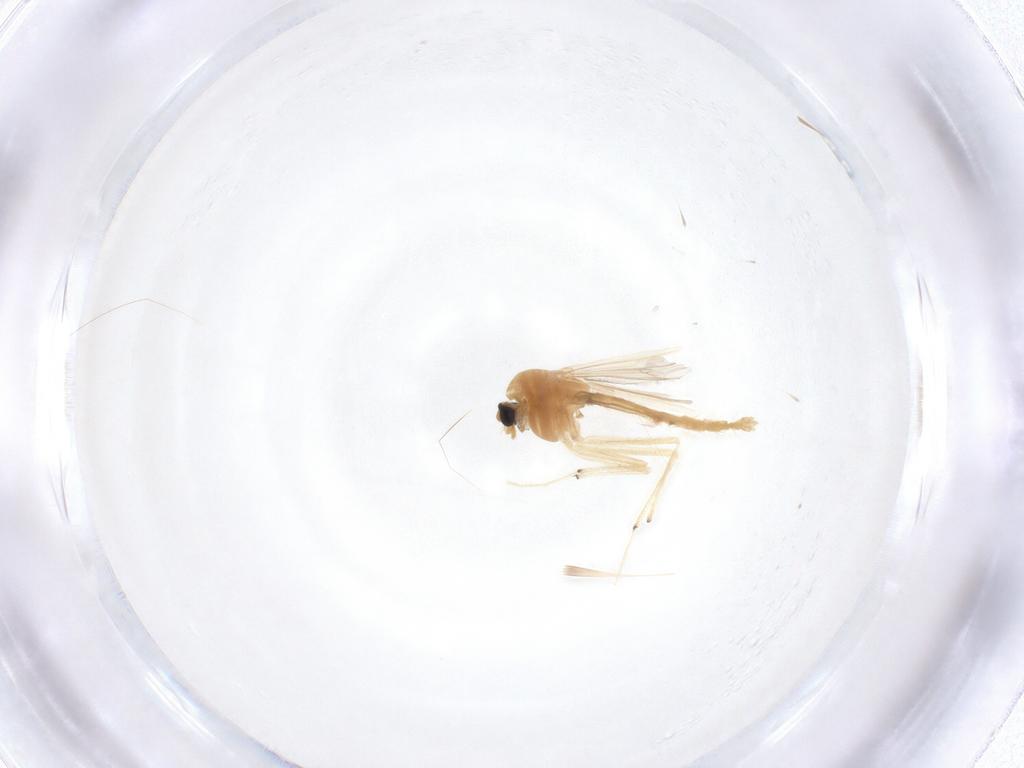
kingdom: Animalia
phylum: Arthropoda
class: Insecta
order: Diptera
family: Chironomidae
